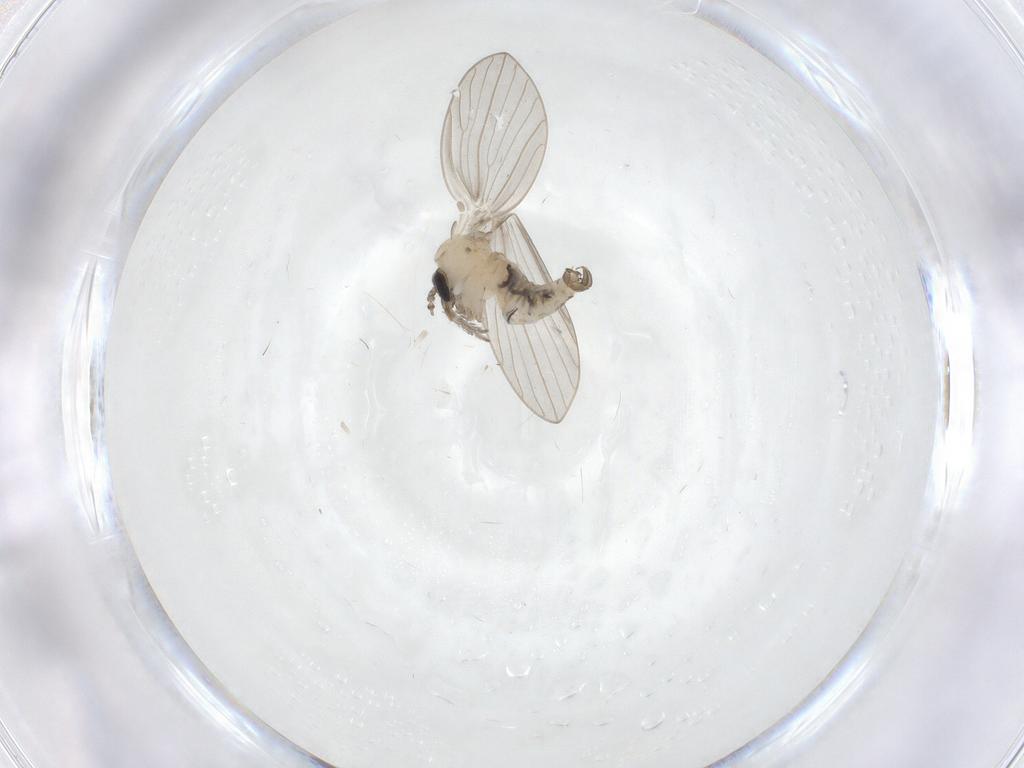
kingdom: Animalia
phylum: Arthropoda
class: Insecta
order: Diptera
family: Psychodidae
